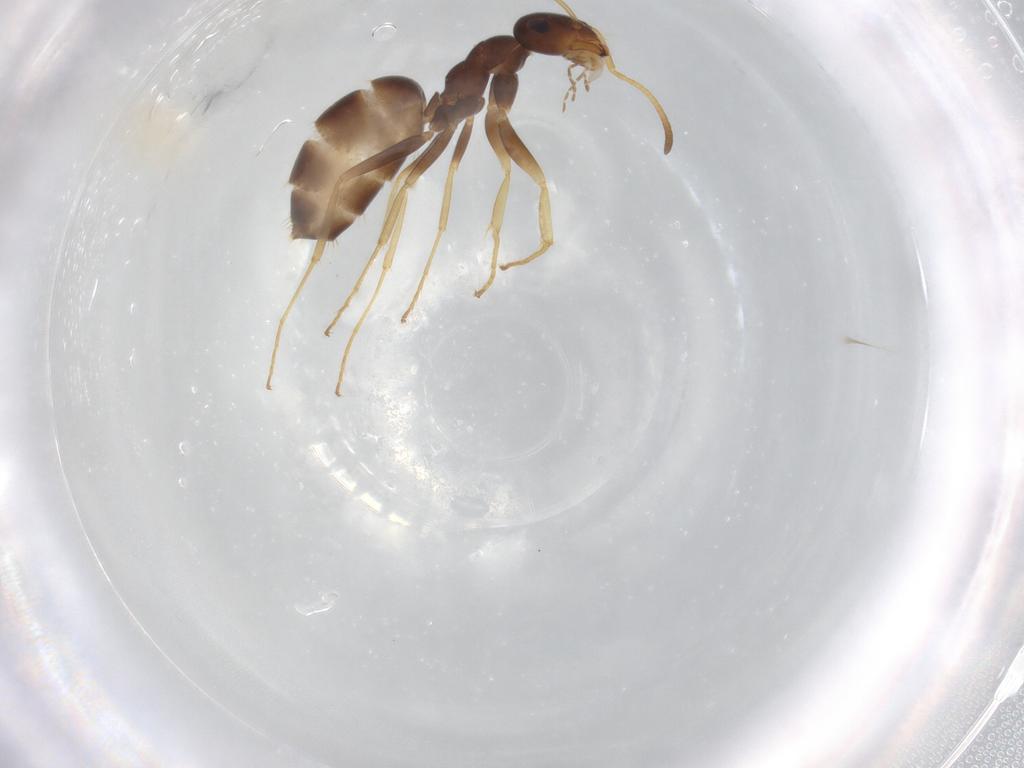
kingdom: Animalia
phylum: Arthropoda
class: Insecta
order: Hymenoptera
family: Formicidae
